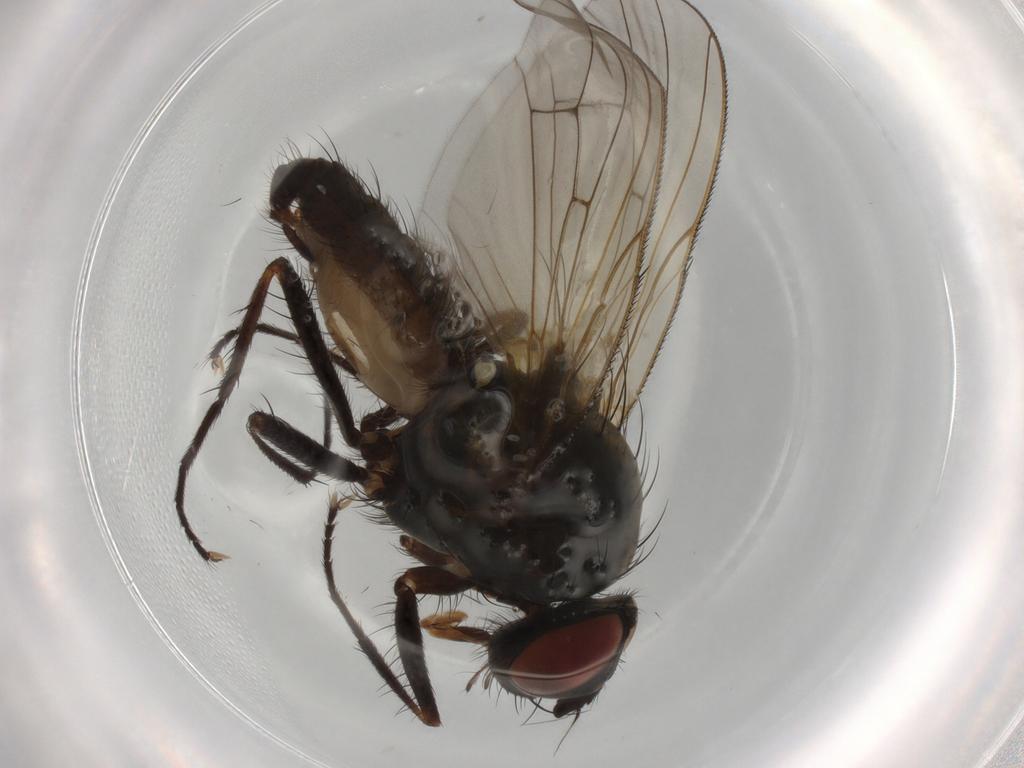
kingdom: Animalia
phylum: Arthropoda
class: Insecta
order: Diptera
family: Anthomyiidae
